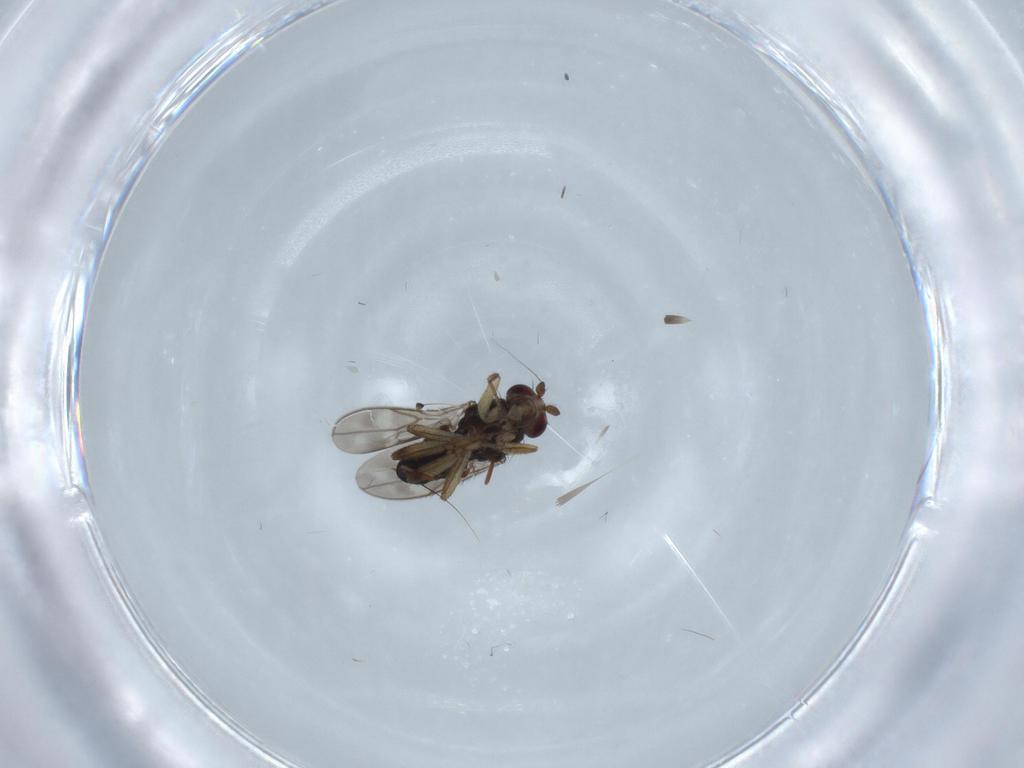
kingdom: Animalia
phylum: Arthropoda
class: Insecta
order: Diptera
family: Sphaeroceridae
